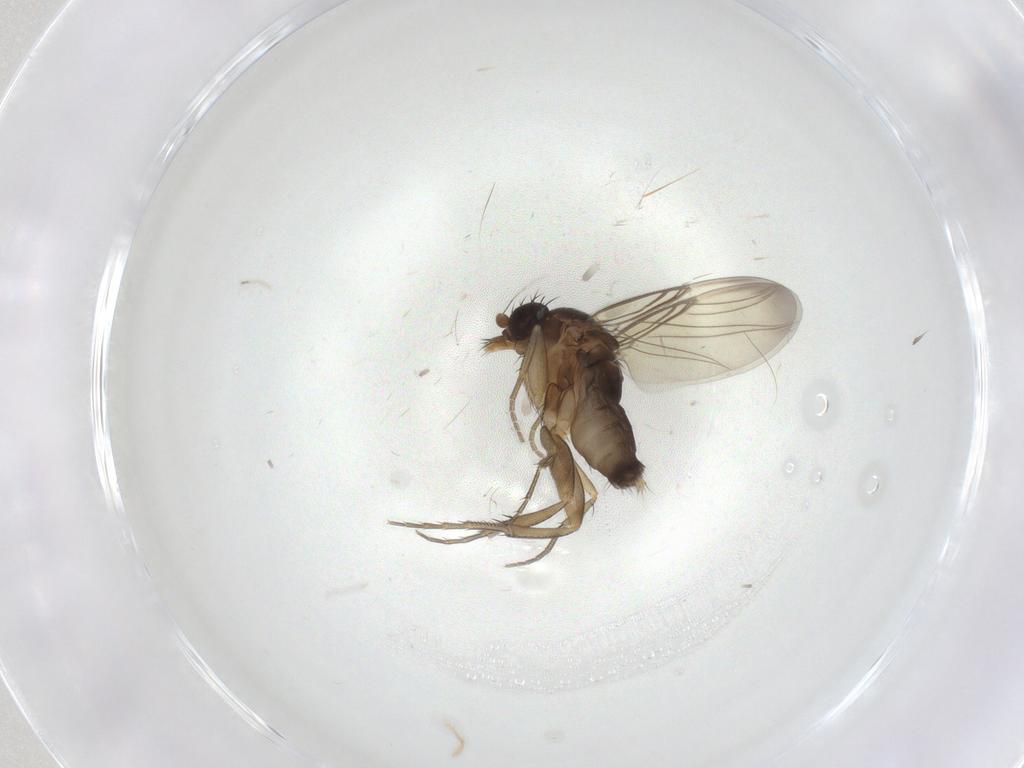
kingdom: Animalia
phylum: Arthropoda
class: Insecta
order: Diptera
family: Phoridae
